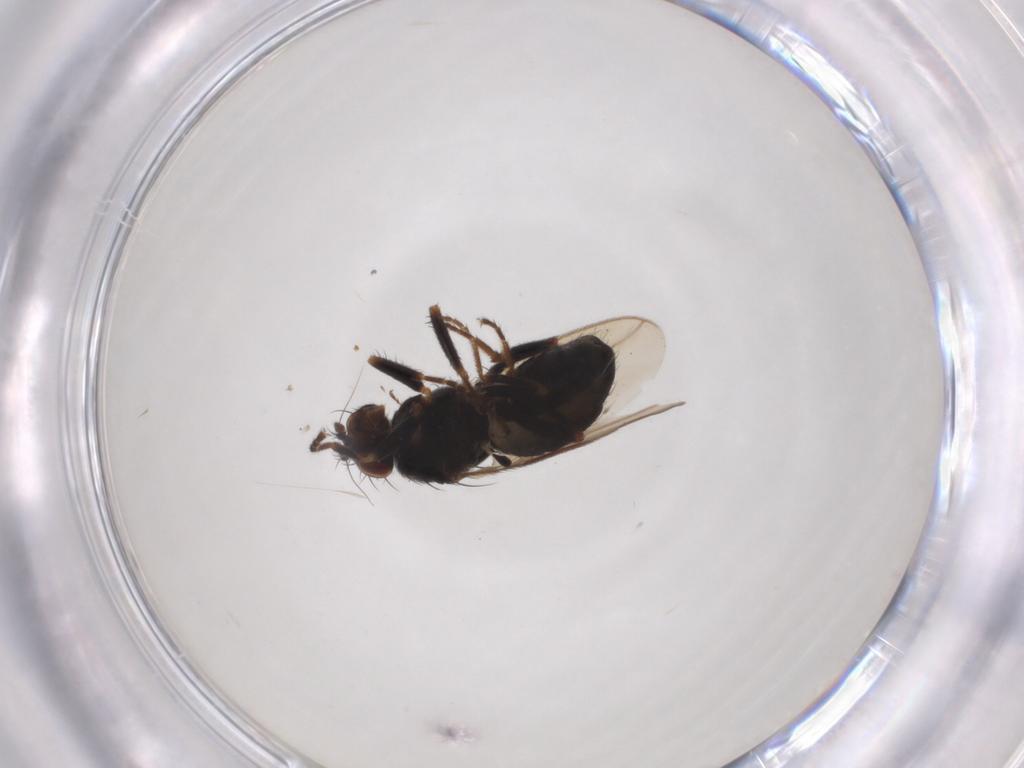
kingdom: Animalia
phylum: Arthropoda
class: Insecta
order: Diptera
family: Sphaeroceridae
